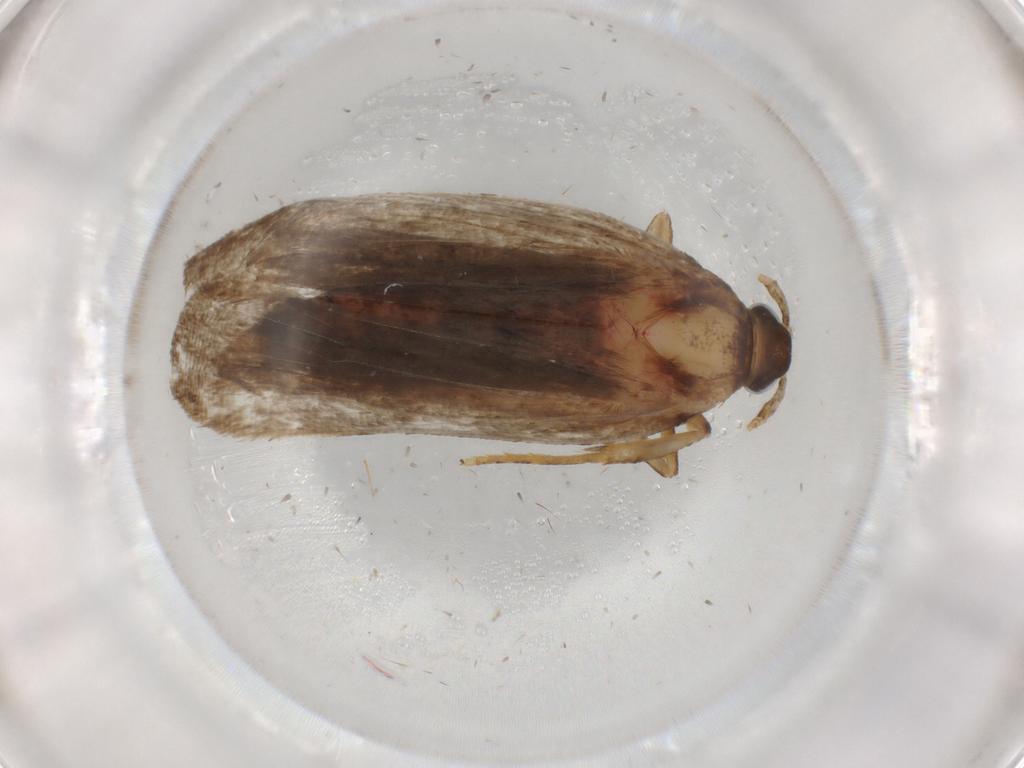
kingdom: Animalia
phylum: Arthropoda
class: Insecta
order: Lepidoptera
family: Autostichidae
